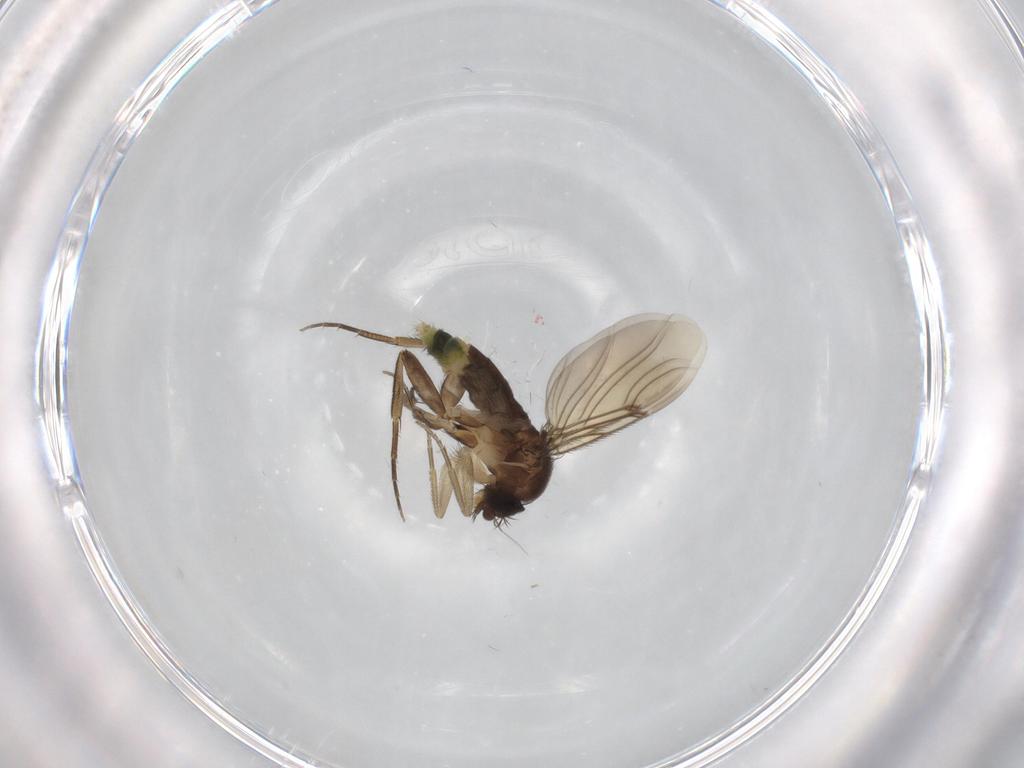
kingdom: Animalia
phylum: Arthropoda
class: Insecta
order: Diptera
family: Phoridae
